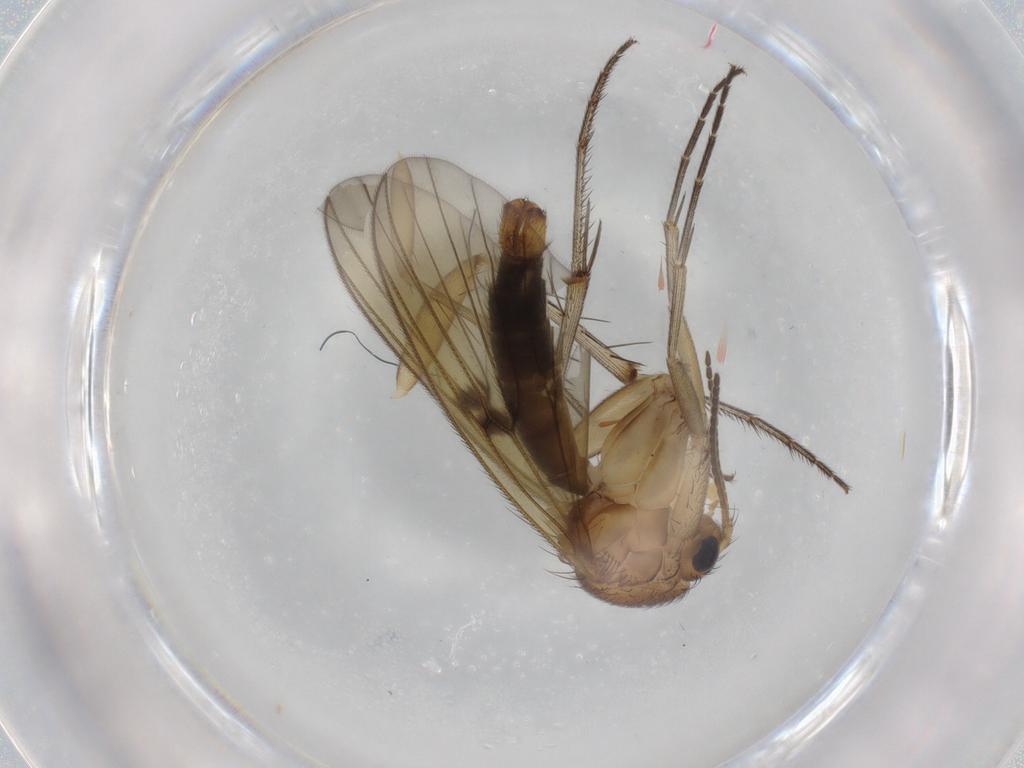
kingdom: Animalia
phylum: Arthropoda
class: Insecta
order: Diptera
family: Mycetophilidae
